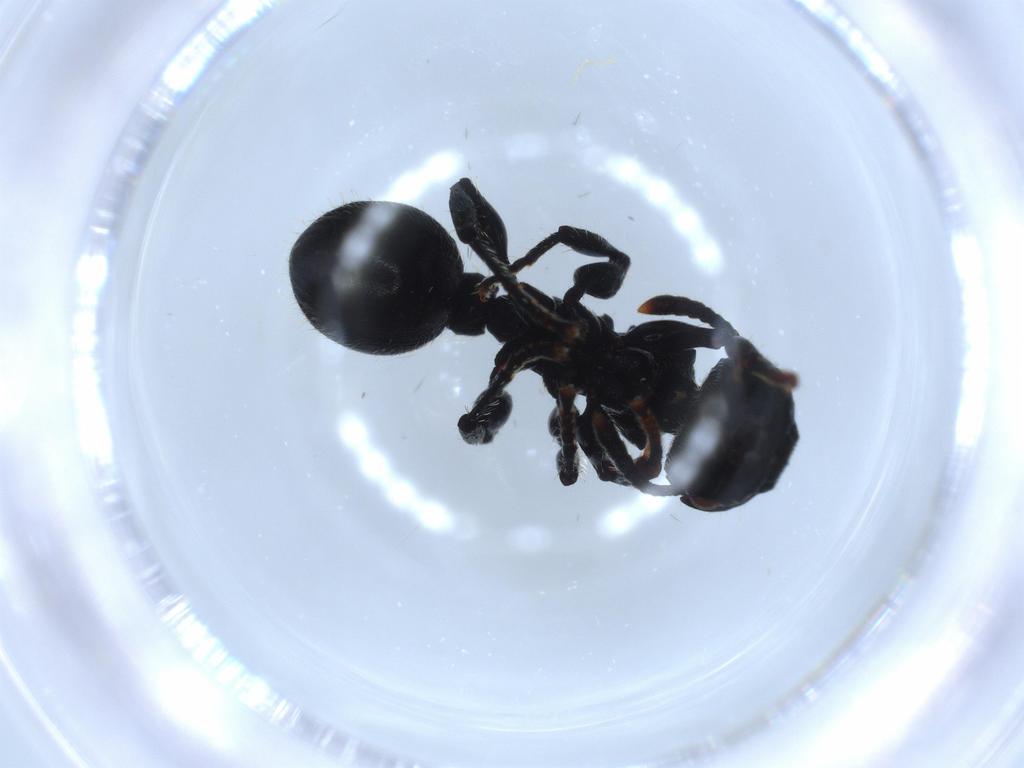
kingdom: Animalia
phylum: Arthropoda
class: Insecta
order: Hymenoptera
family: Formicidae
